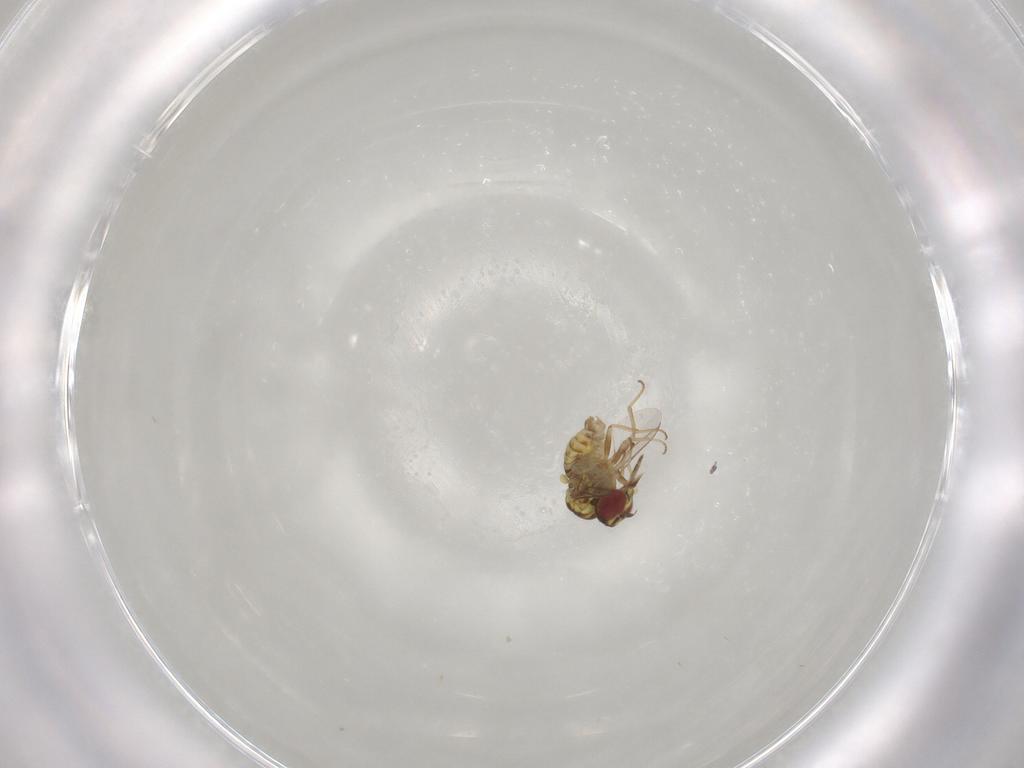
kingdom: Animalia
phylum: Arthropoda
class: Insecta
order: Diptera
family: Mythicomyiidae
